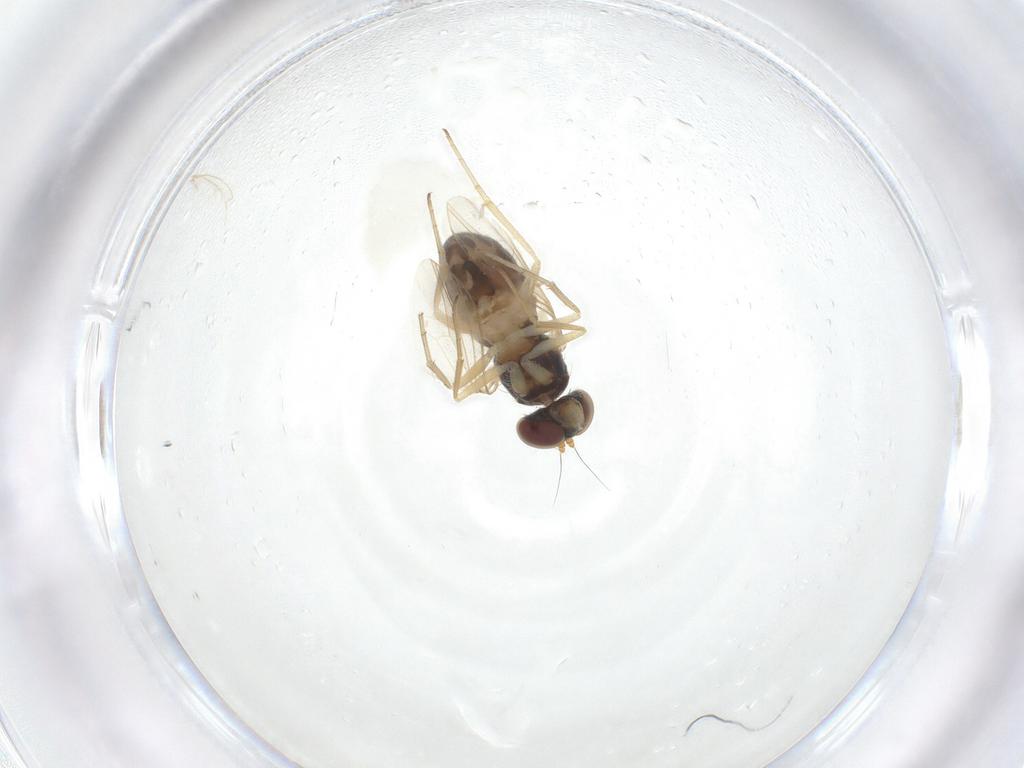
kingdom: Animalia
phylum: Arthropoda
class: Insecta
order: Diptera
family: Dolichopodidae
